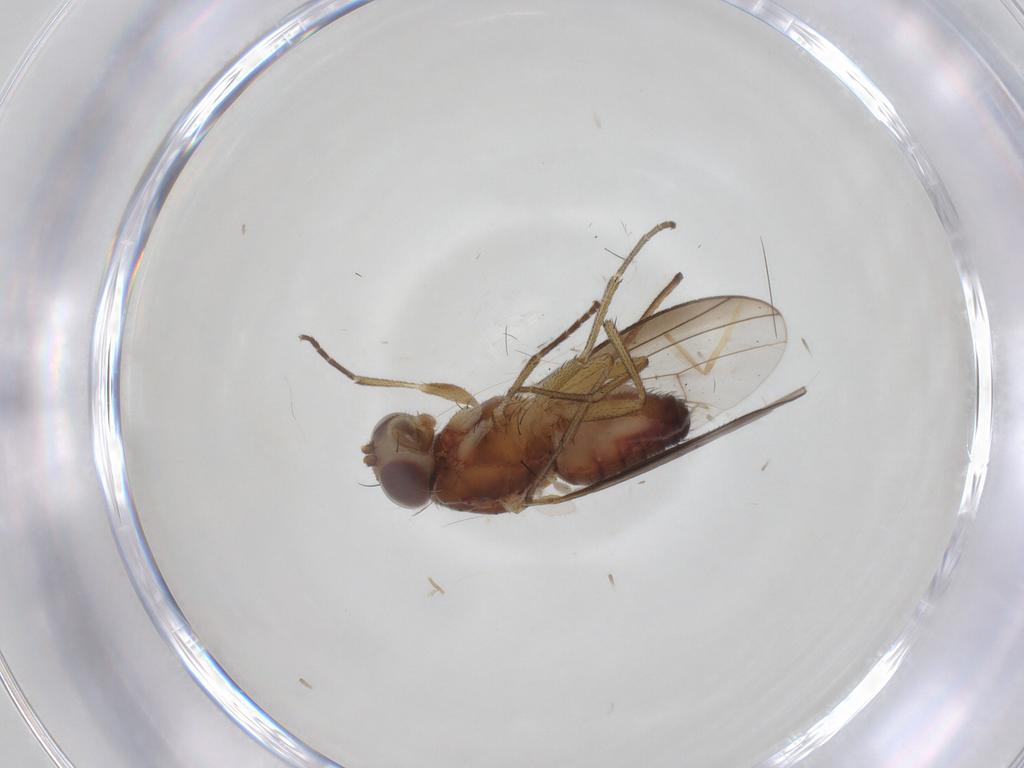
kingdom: Animalia
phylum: Arthropoda
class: Insecta
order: Diptera
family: Heleomyzidae
